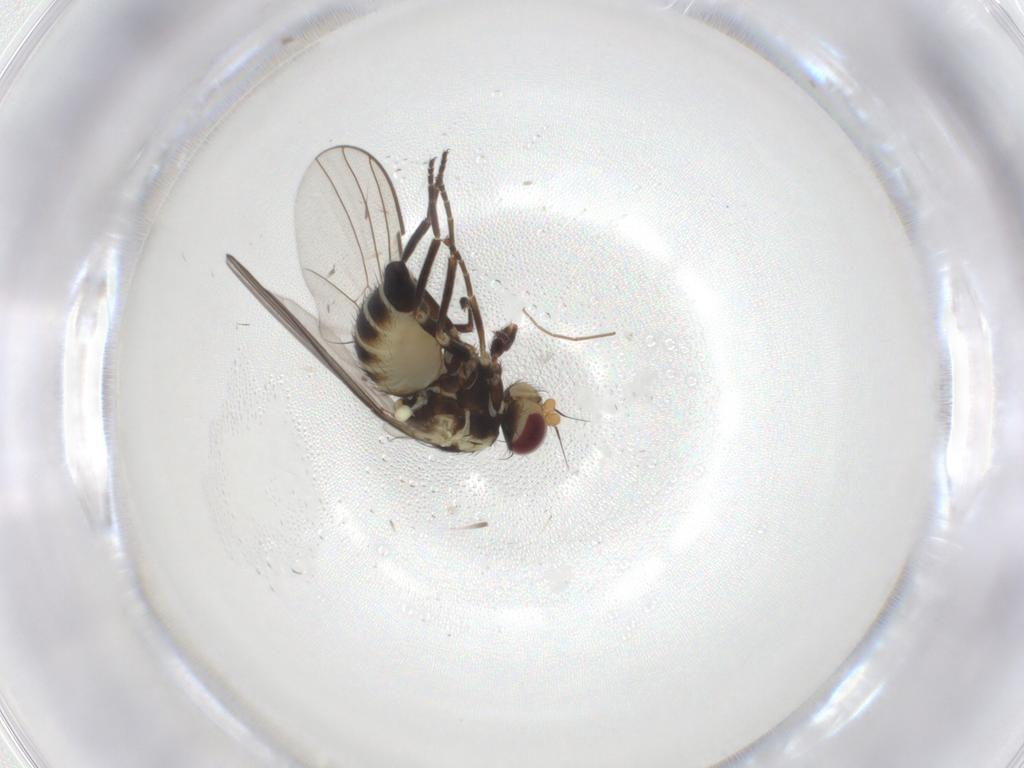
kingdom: Animalia
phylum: Arthropoda
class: Insecta
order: Diptera
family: Agromyzidae
